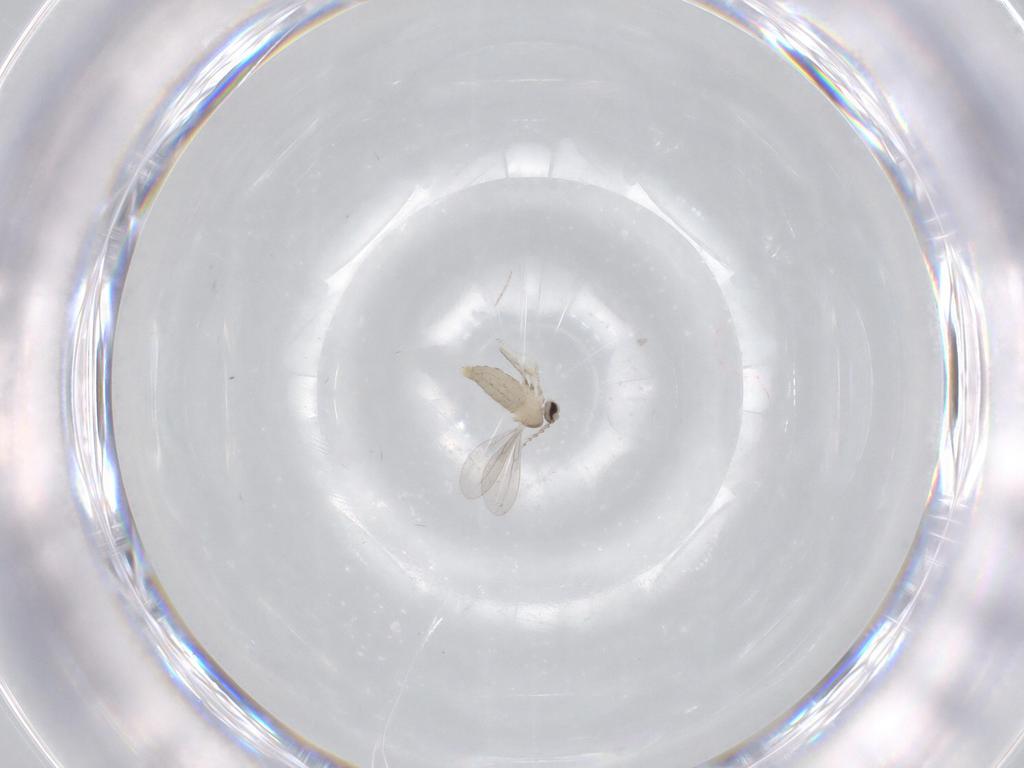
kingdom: Animalia
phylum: Arthropoda
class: Insecta
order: Diptera
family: Cecidomyiidae
